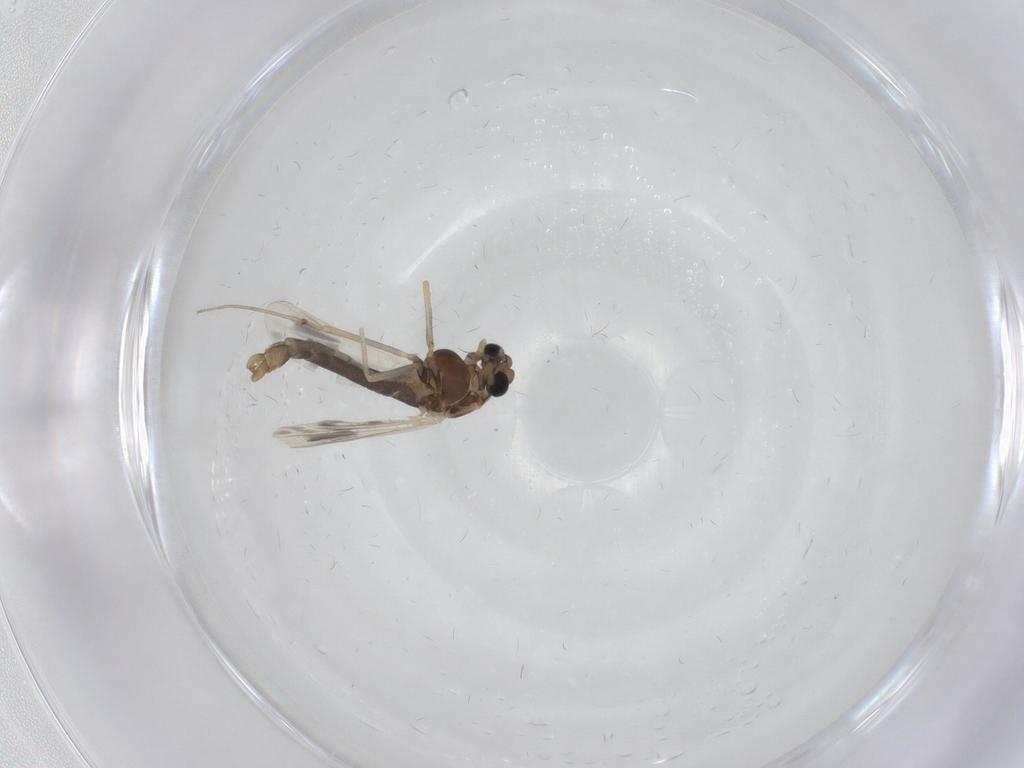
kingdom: Animalia
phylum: Arthropoda
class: Insecta
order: Diptera
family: Chironomidae
